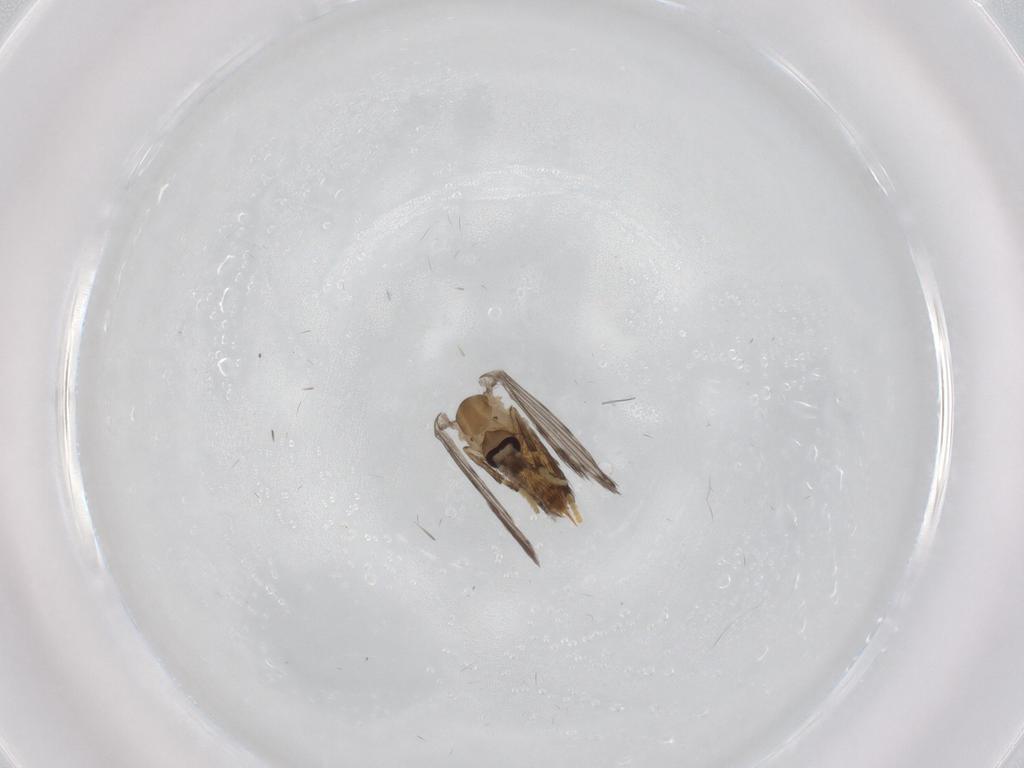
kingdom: Animalia
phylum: Arthropoda
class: Insecta
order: Diptera
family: Psychodidae
